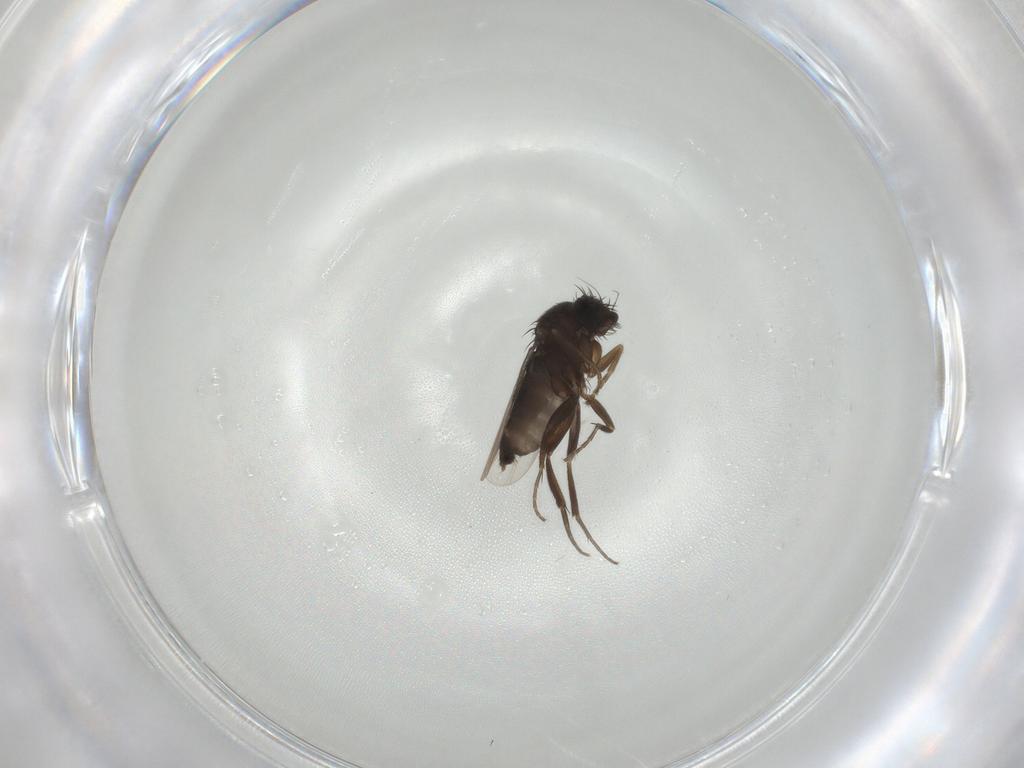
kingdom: Animalia
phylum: Arthropoda
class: Insecta
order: Diptera
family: Phoridae
